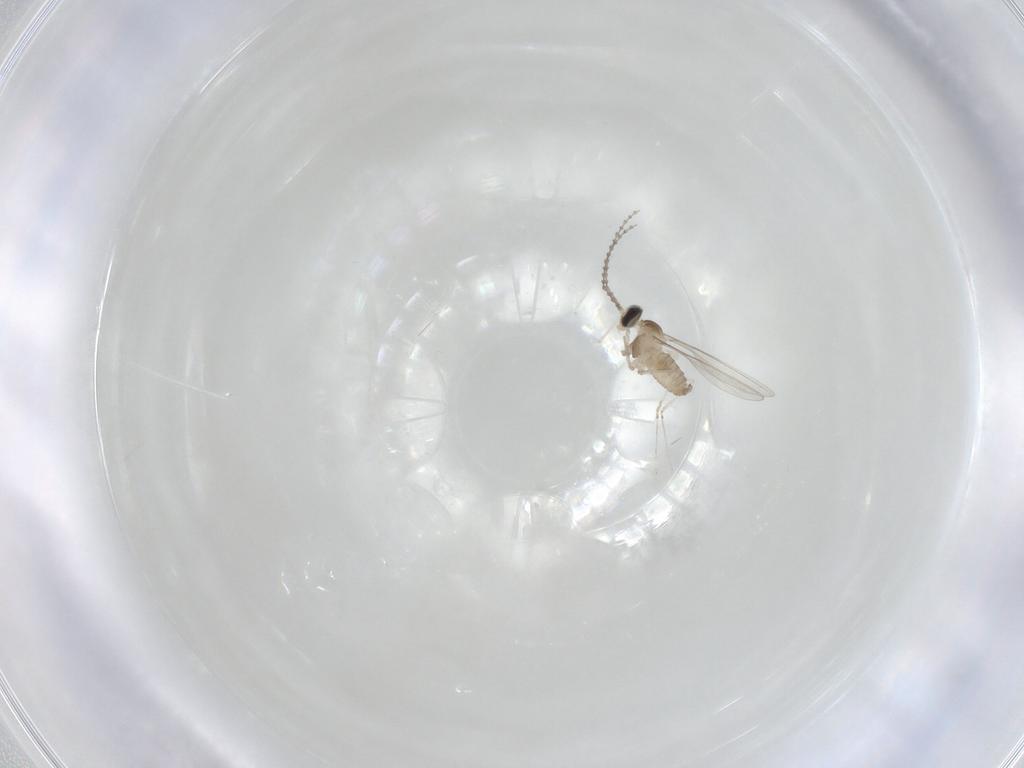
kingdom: Animalia
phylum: Arthropoda
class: Insecta
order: Diptera
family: Cecidomyiidae
